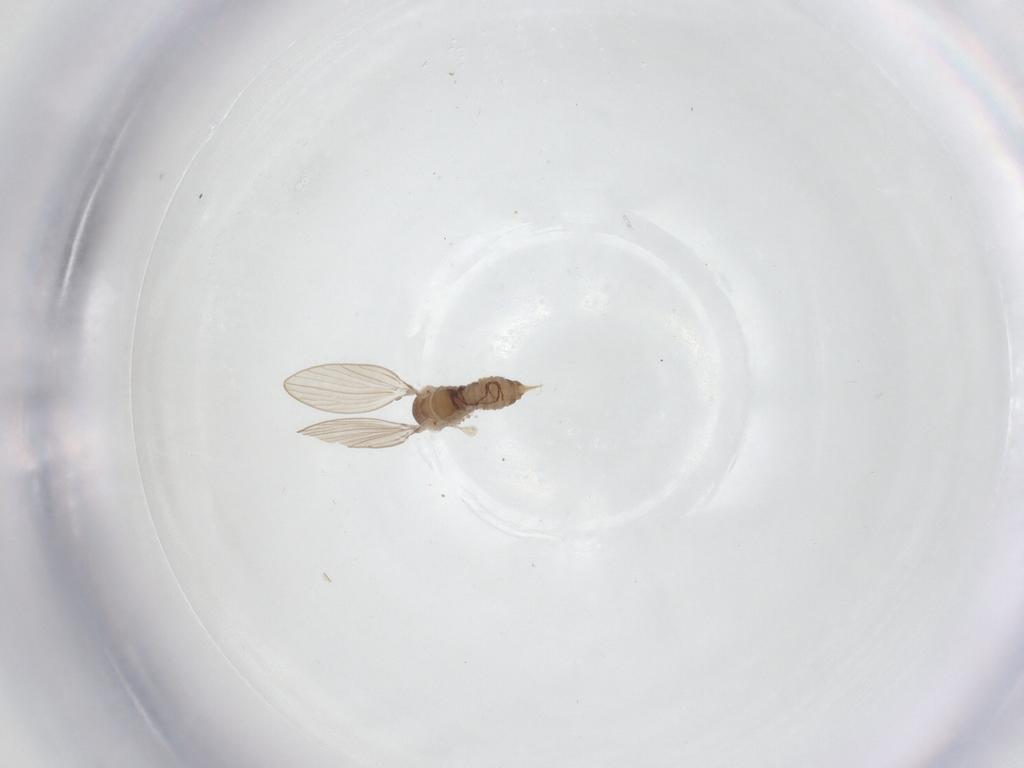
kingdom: Animalia
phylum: Arthropoda
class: Insecta
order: Diptera
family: Psychodidae
